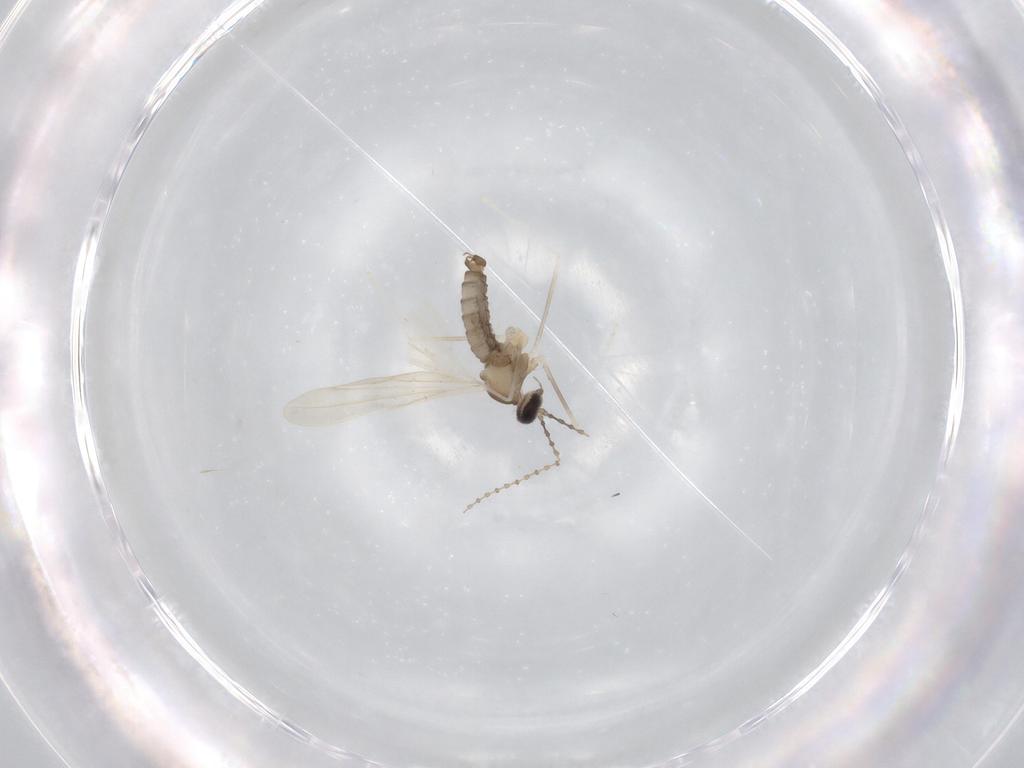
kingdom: Animalia
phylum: Arthropoda
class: Insecta
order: Diptera
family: Cecidomyiidae
